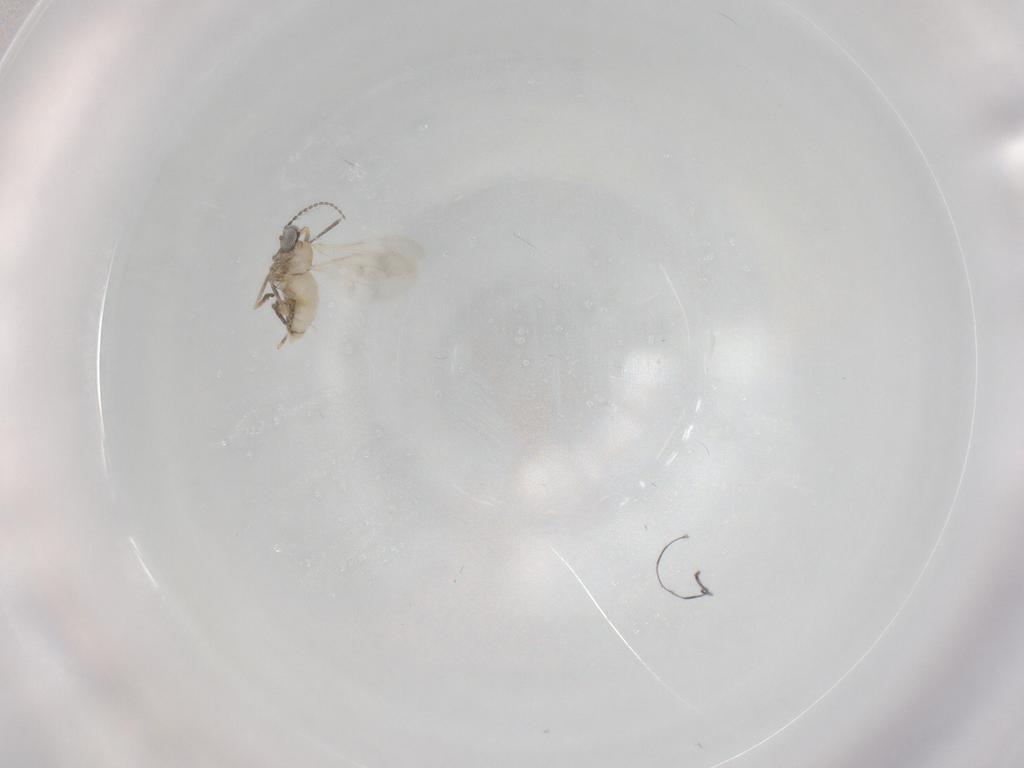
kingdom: Animalia
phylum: Arthropoda
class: Insecta
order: Diptera
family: Cecidomyiidae
